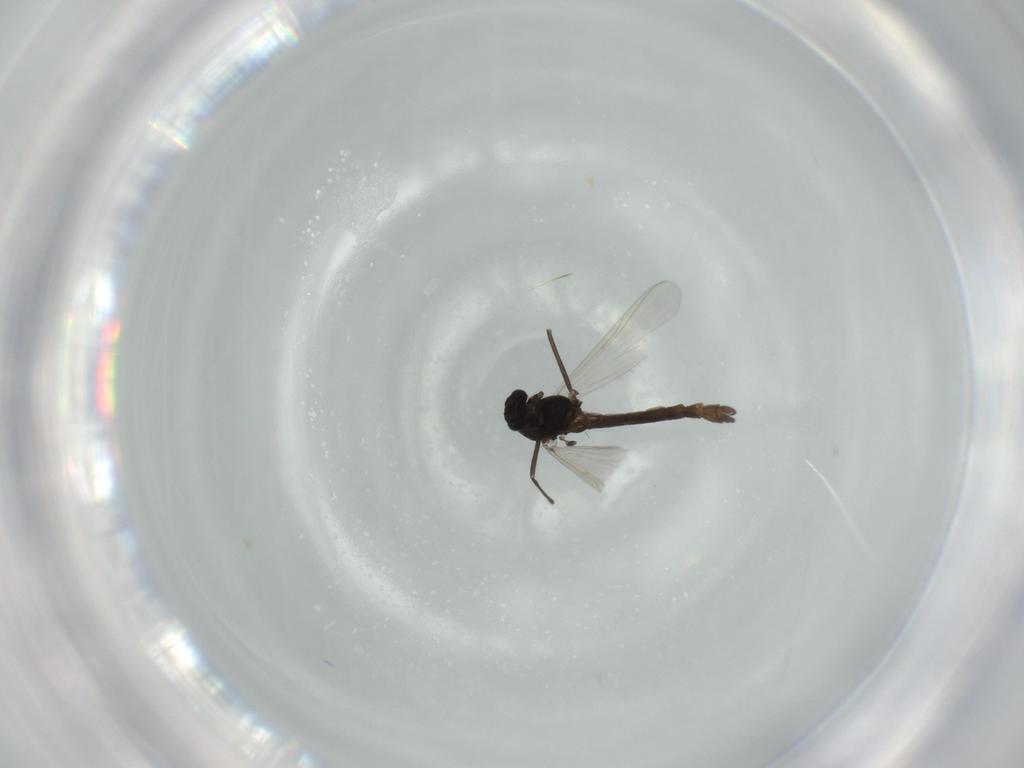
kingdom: Animalia
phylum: Arthropoda
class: Insecta
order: Diptera
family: Chironomidae
